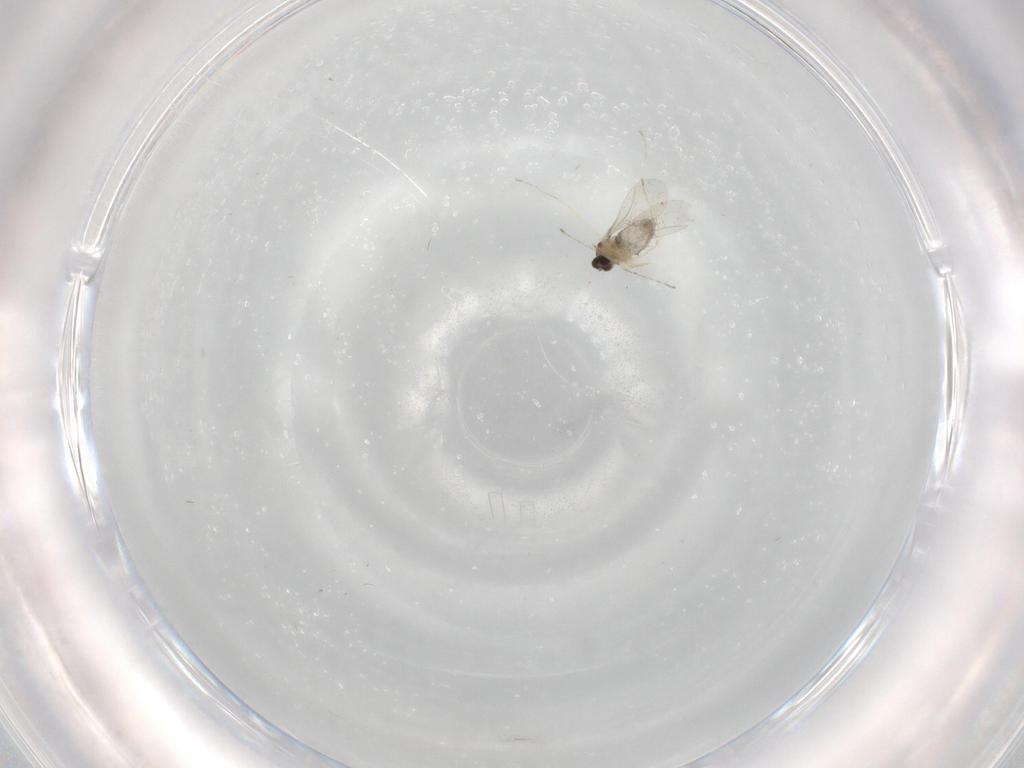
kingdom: Animalia
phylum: Arthropoda
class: Insecta
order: Diptera
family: Cecidomyiidae
